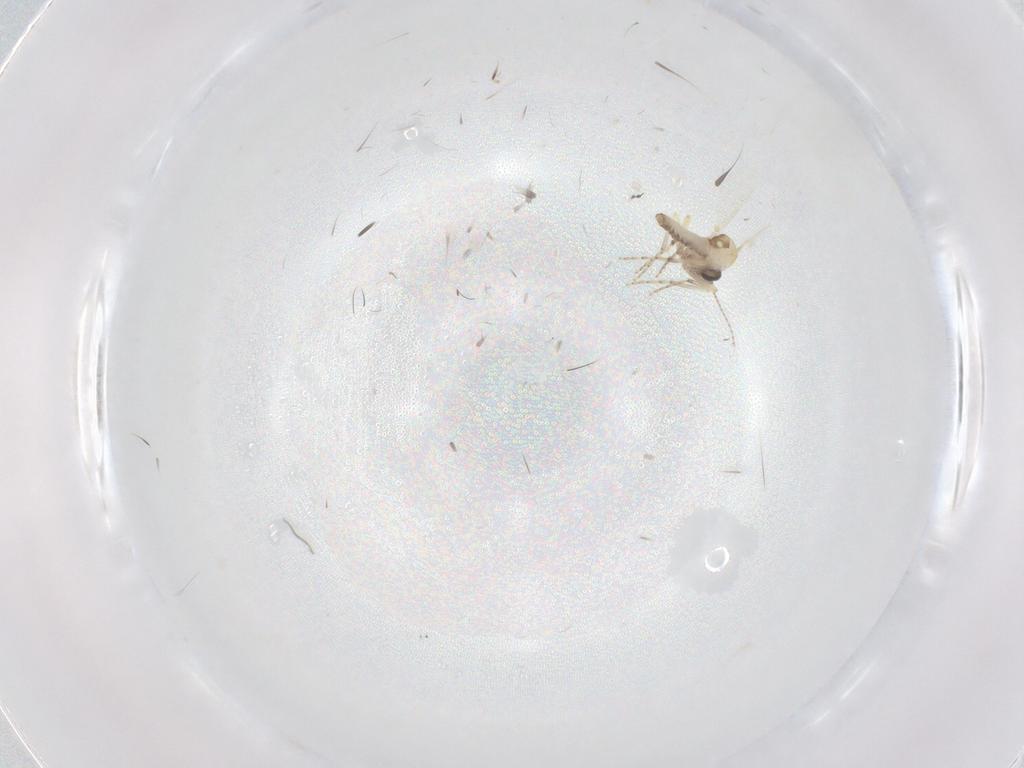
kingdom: Animalia
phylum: Arthropoda
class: Insecta
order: Diptera
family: Ceratopogonidae
